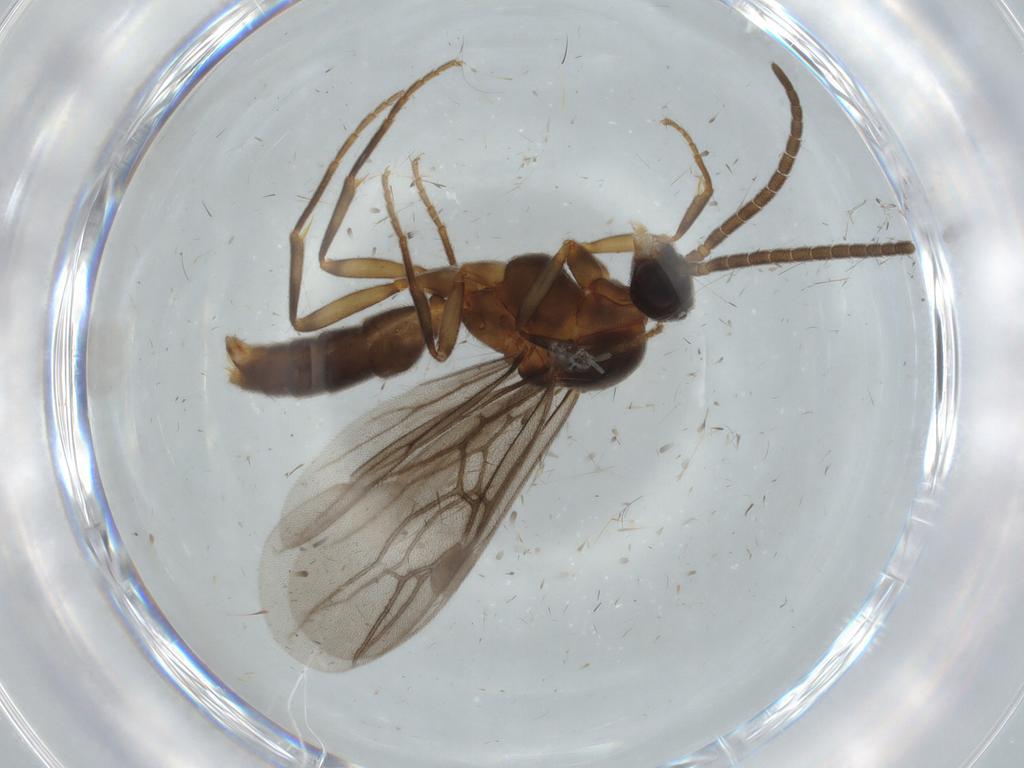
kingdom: Animalia
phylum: Arthropoda
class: Insecta
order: Hymenoptera
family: Formicidae
